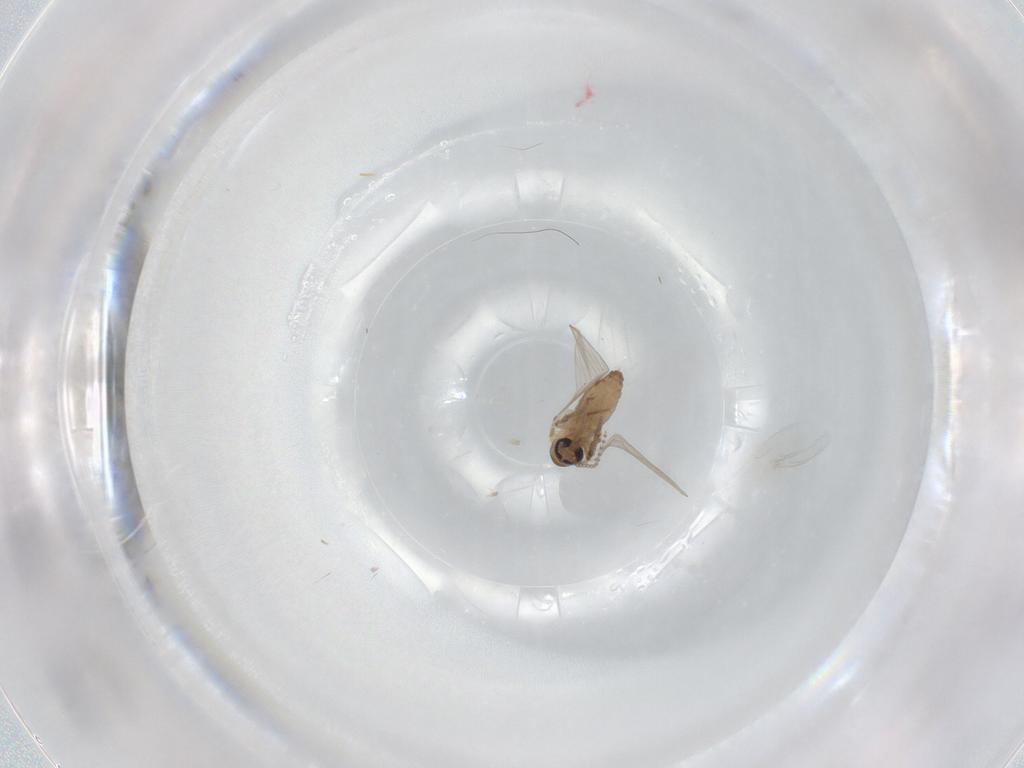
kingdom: Animalia
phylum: Arthropoda
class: Insecta
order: Diptera
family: Psychodidae
